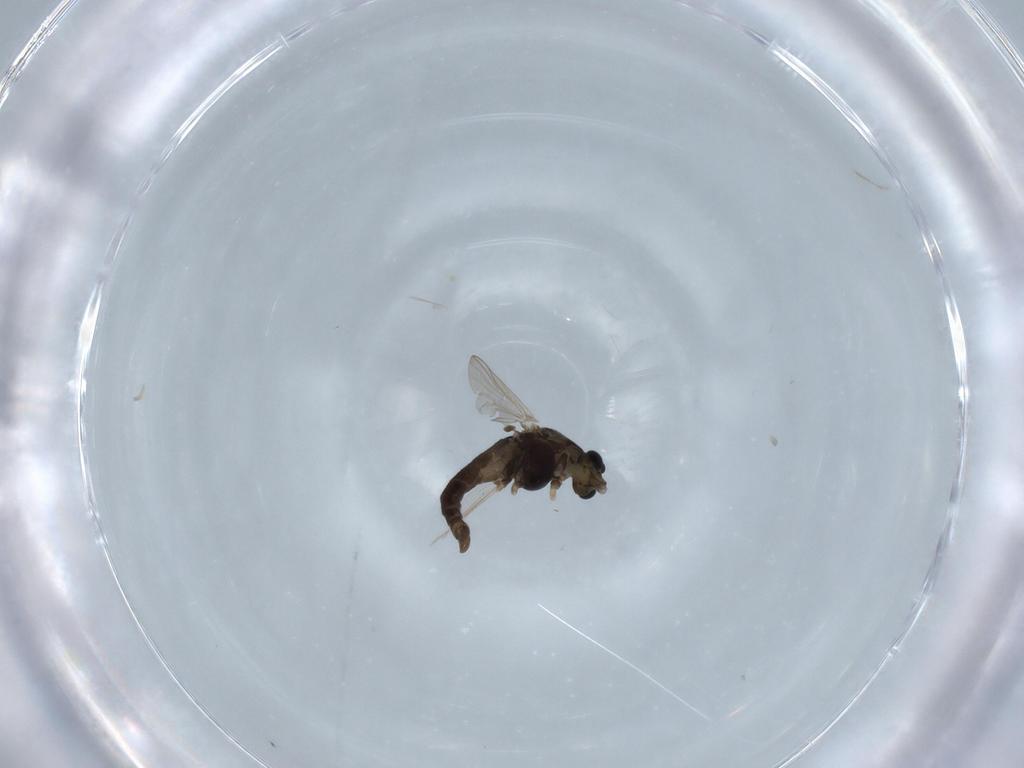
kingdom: Animalia
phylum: Arthropoda
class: Insecta
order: Diptera
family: Chironomidae
